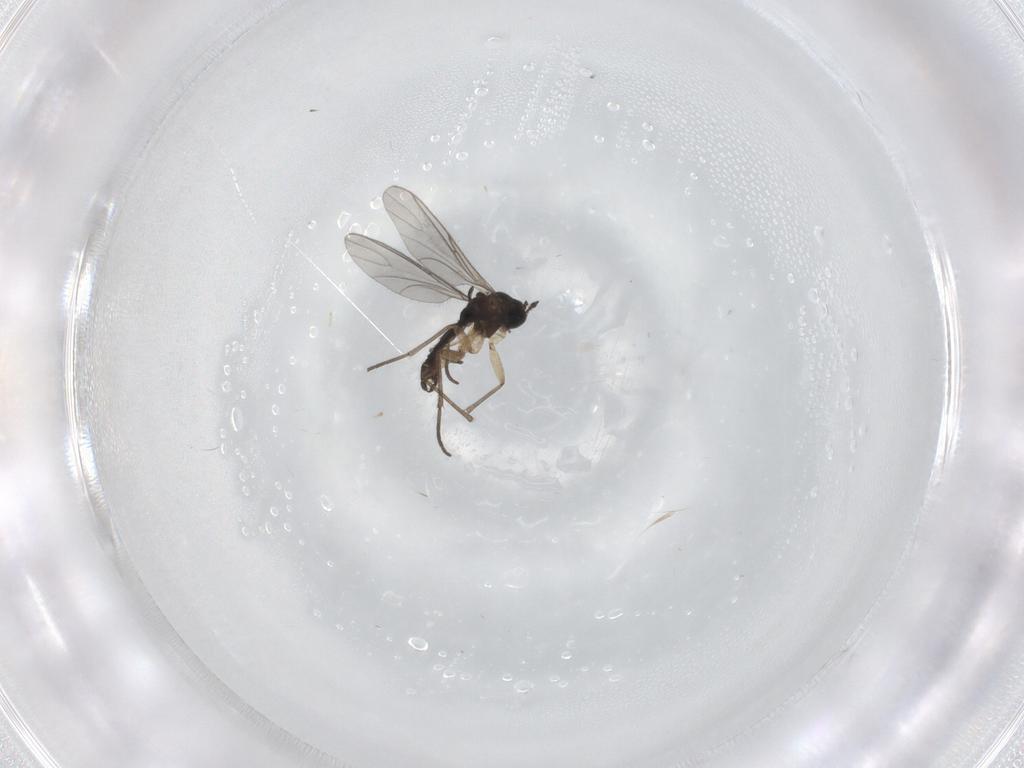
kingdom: Animalia
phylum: Arthropoda
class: Insecta
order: Diptera
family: Sciaridae
